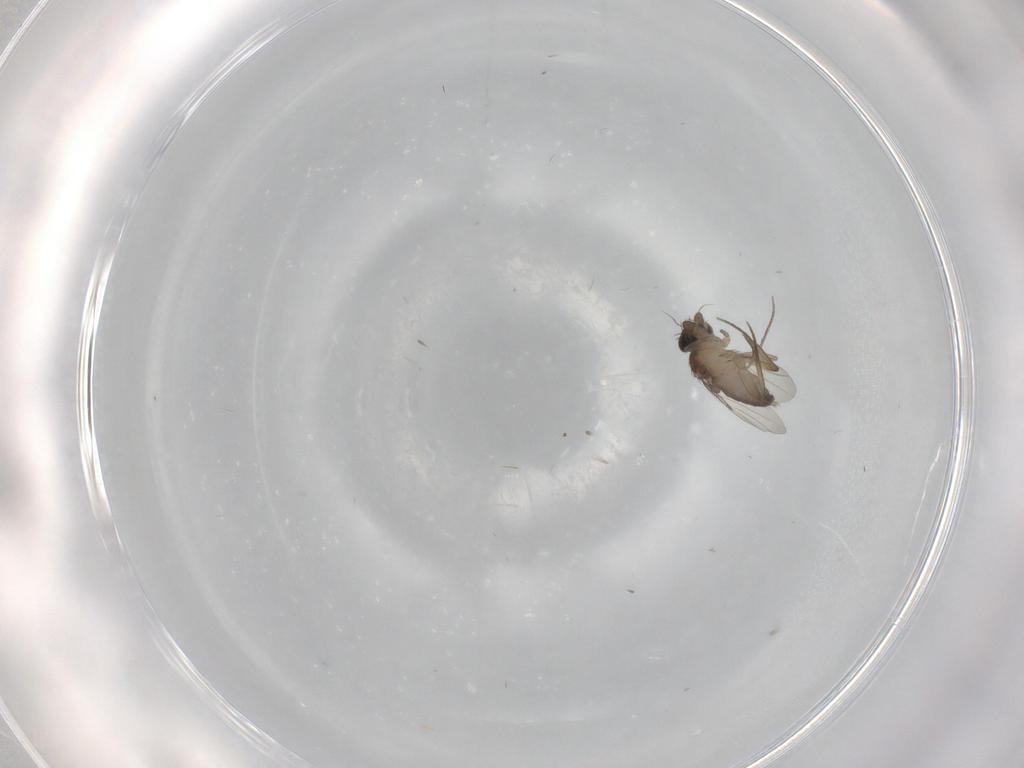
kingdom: Animalia
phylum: Arthropoda
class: Insecta
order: Diptera
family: Phoridae
